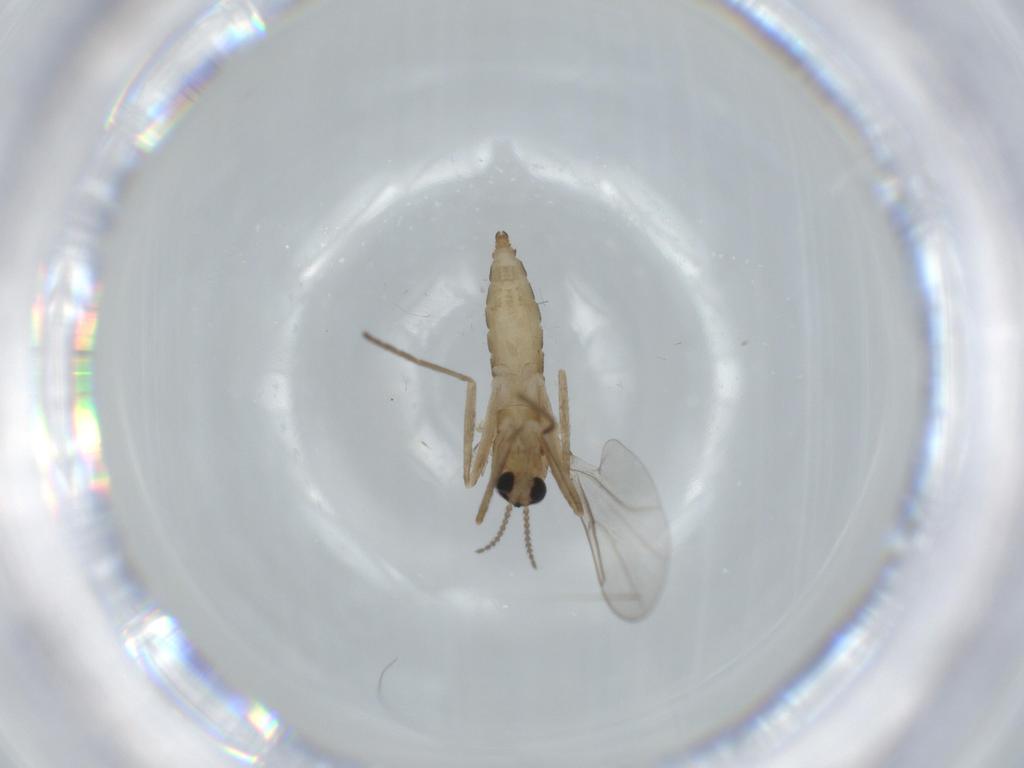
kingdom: Animalia
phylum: Arthropoda
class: Insecta
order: Diptera
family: Cecidomyiidae
